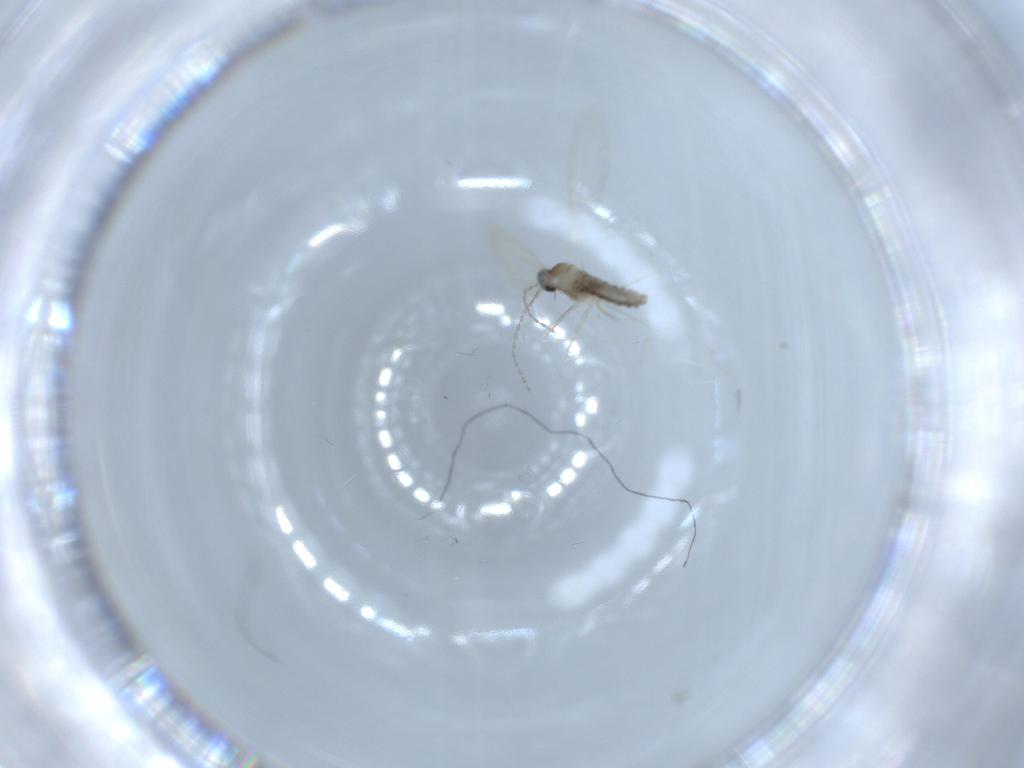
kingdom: Animalia
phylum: Arthropoda
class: Insecta
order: Diptera
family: Cecidomyiidae
